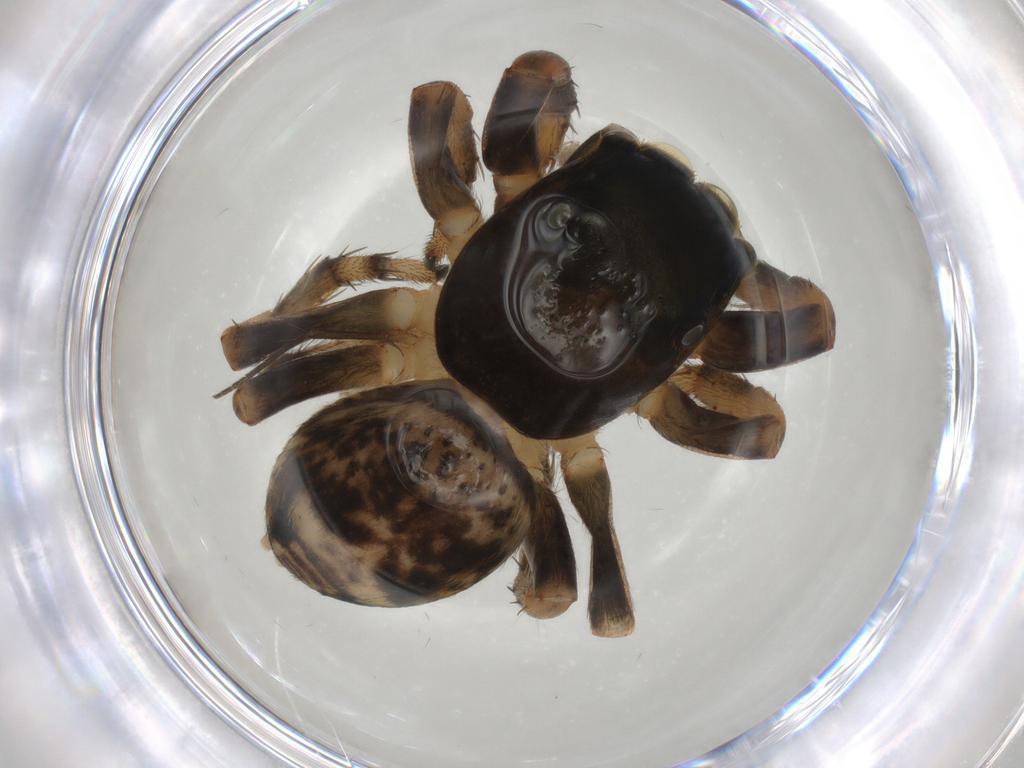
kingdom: Animalia
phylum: Arthropoda
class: Arachnida
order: Araneae
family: Salticidae
